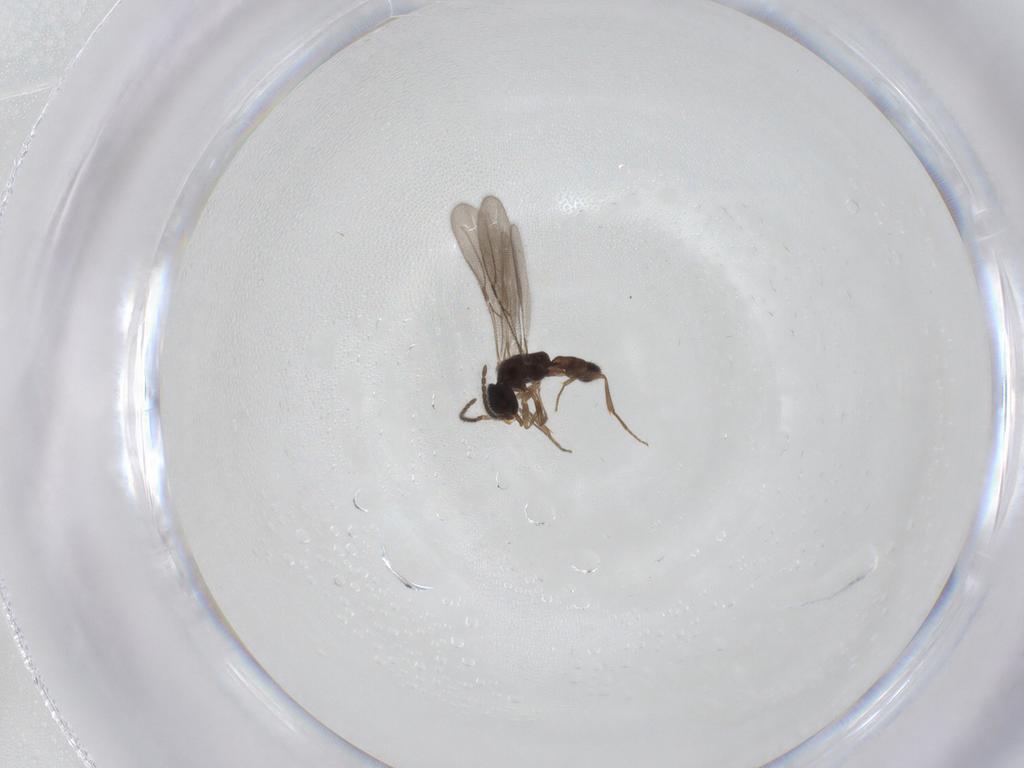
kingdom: Animalia
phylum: Arthropoda
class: Insecta
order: Hymenoptera
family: Bethylidae
